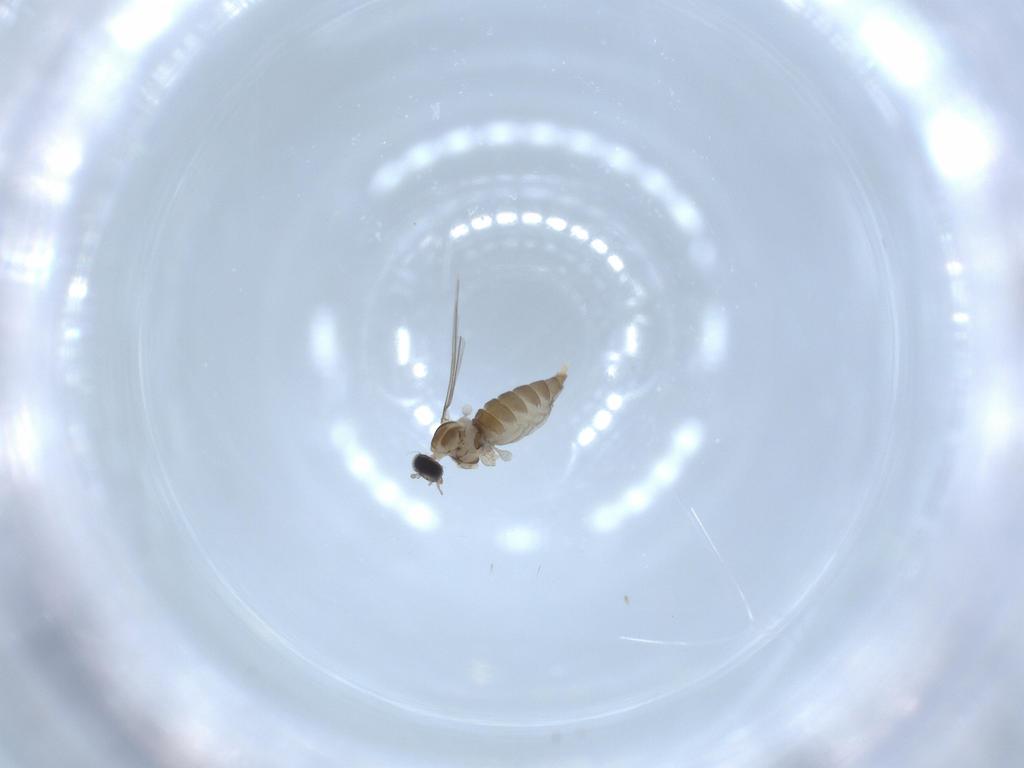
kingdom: Animalia
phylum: Arthropoda
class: Insecta
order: Diptera
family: Cecidomyiidae
